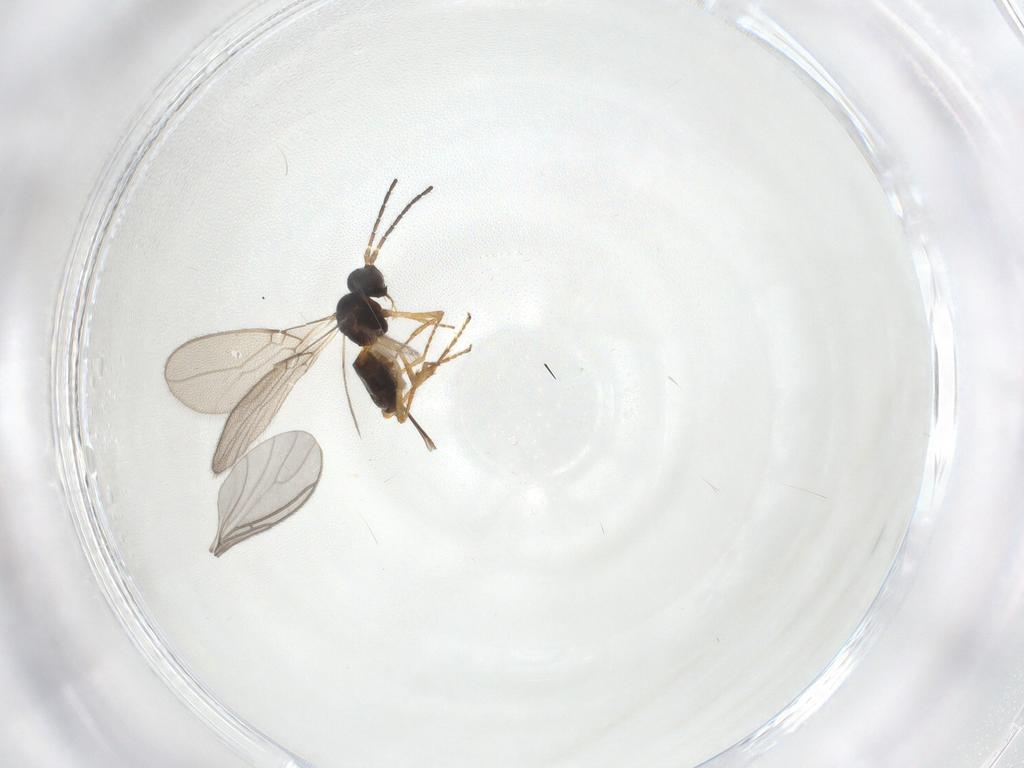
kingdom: Animalia
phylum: Arthropoda
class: Insecta
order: Hymenoptera
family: Braconidae
